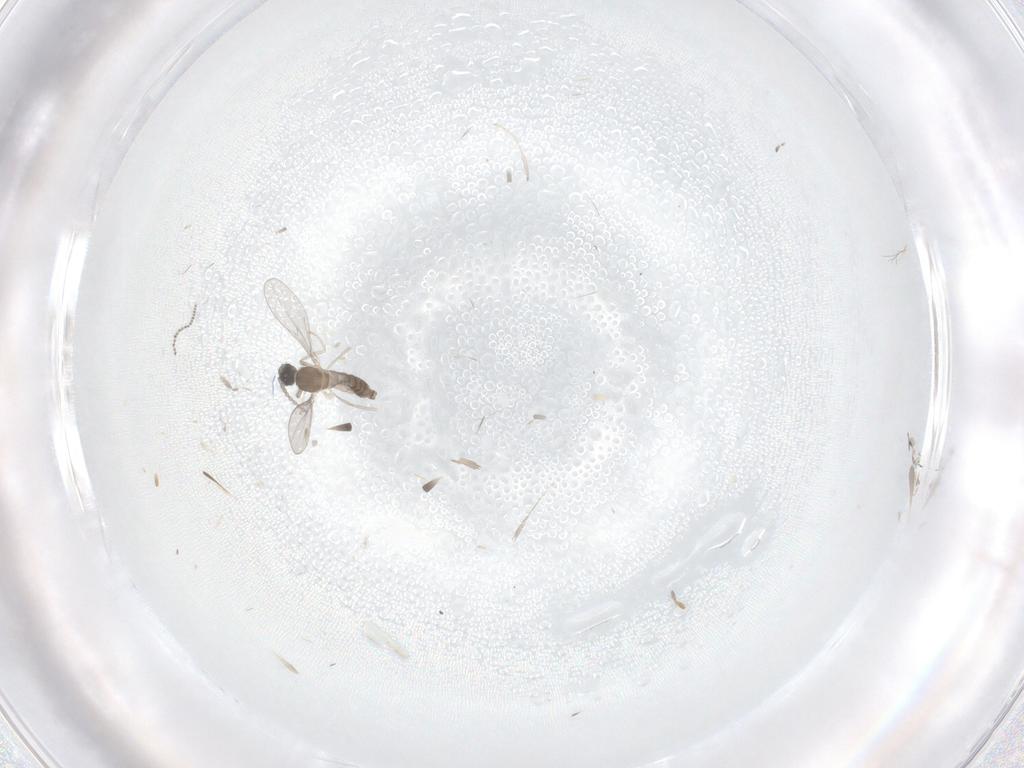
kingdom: Animalia
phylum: Arthropoda
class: Insecta
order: Diptera
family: Cecidomyiidae
